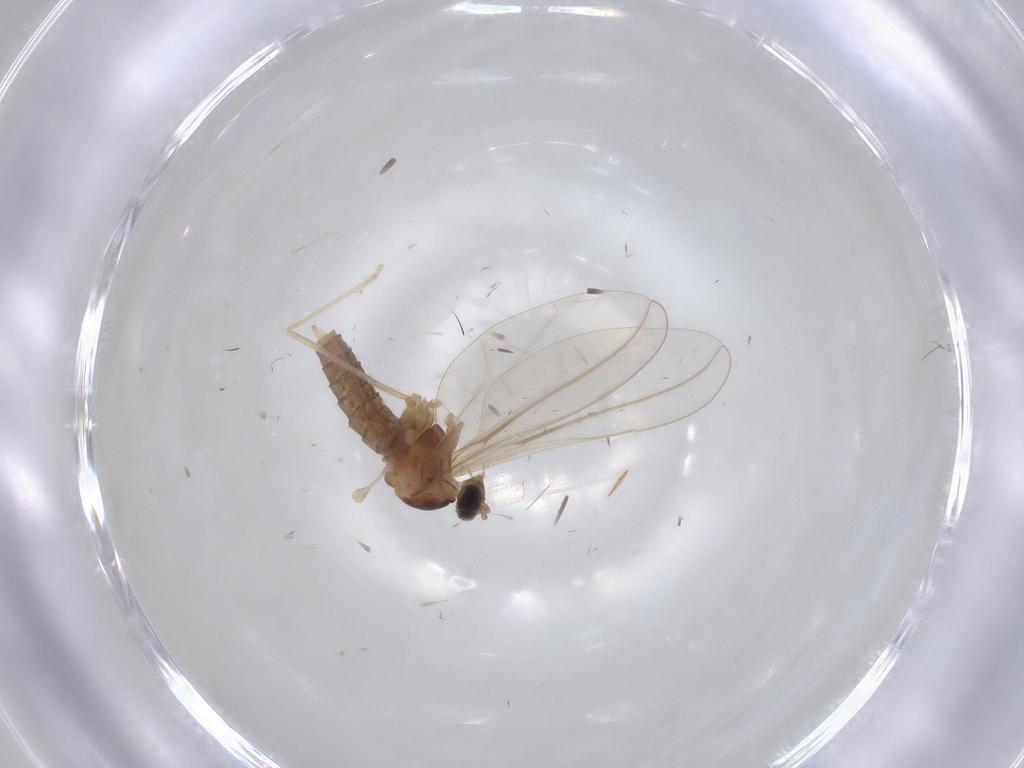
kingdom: Animalia
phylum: Arthropoda
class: Insecta
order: Diptera
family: Cecidomyiidae
